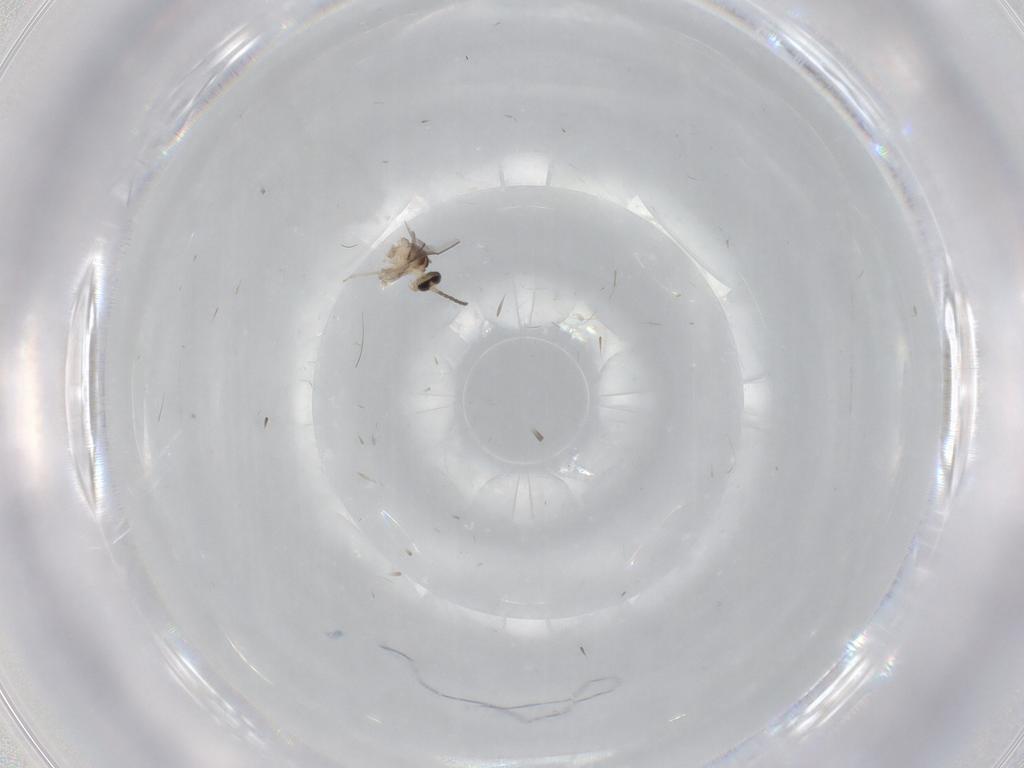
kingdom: Animalia
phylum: Arthropoda
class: Insecta
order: Diptera
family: Cecidomyiidae
